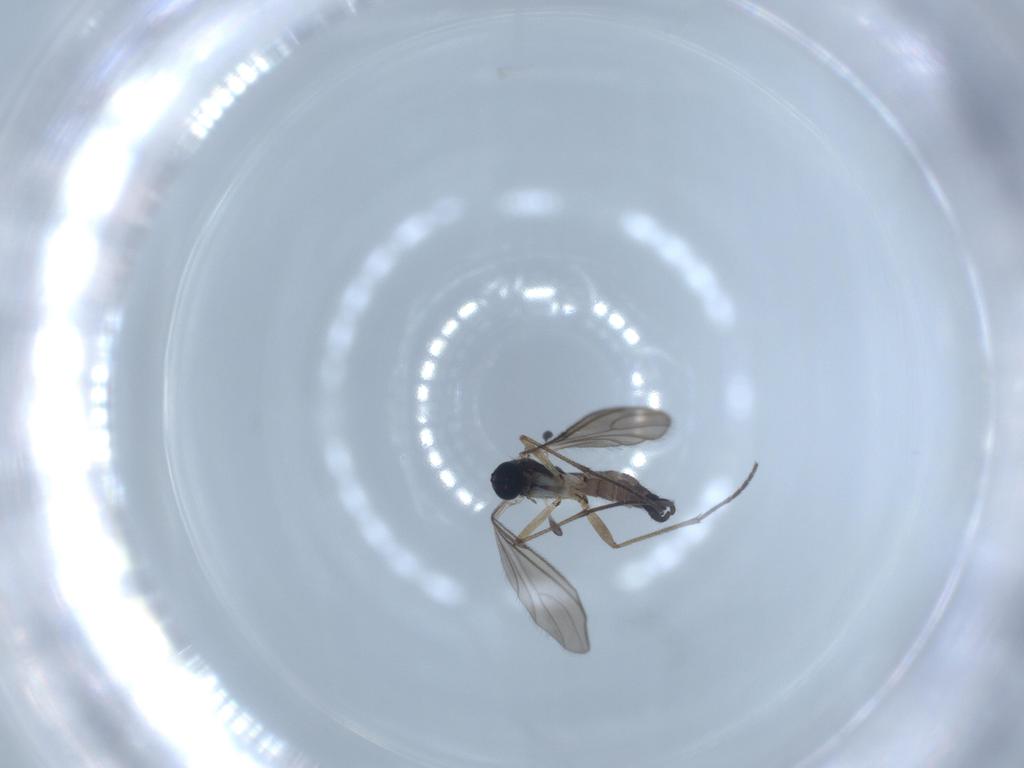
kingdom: Animalia
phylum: Arthropoda
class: Insecta
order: Diptera
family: Sciaridae
